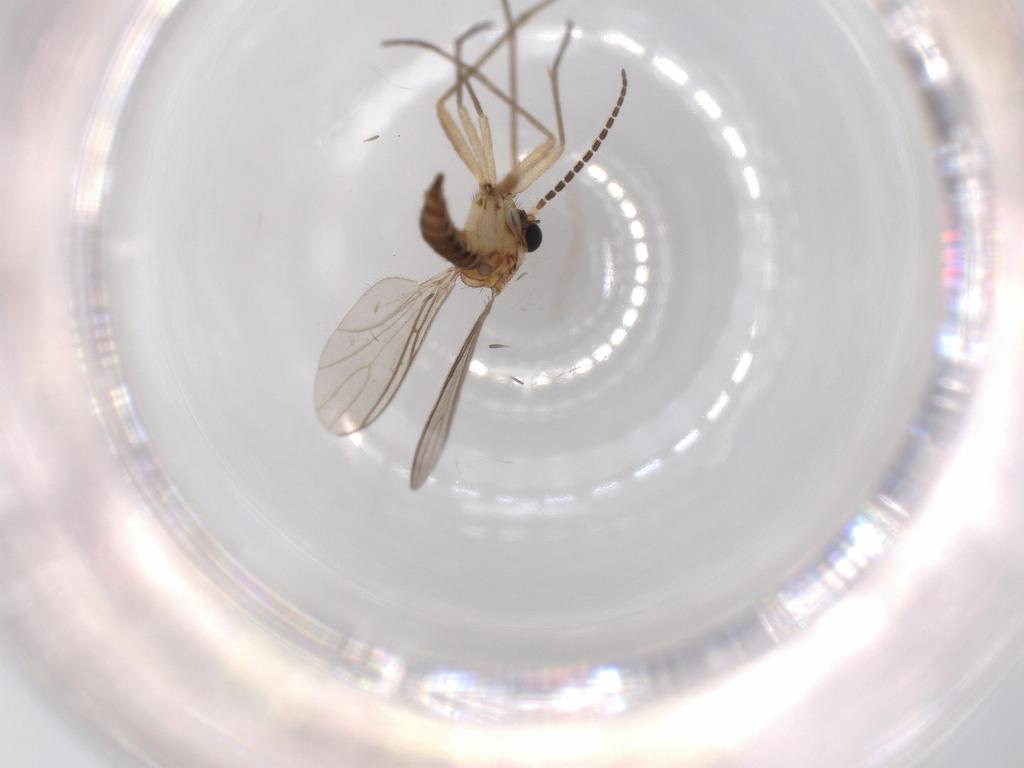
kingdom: Animalia
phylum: Arthropoda
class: Insecta
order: Diptera
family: Sciaridae
